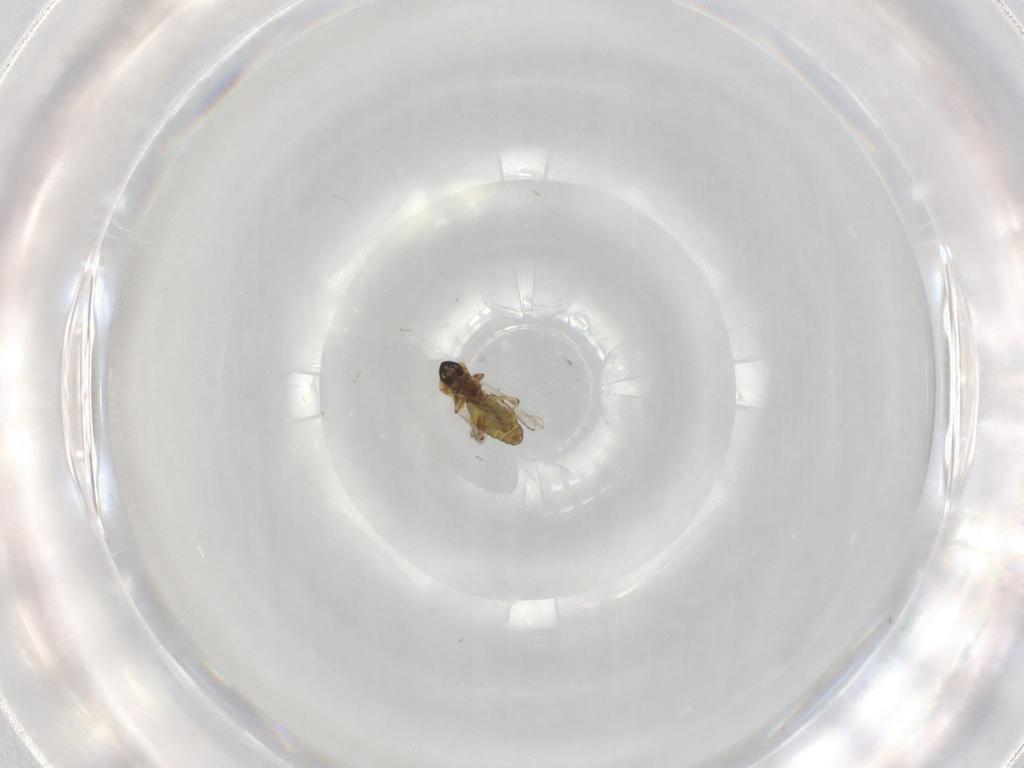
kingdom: Animalia
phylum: Arthropoda
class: Insecta
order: Diptera
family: Ceratopogonidae
